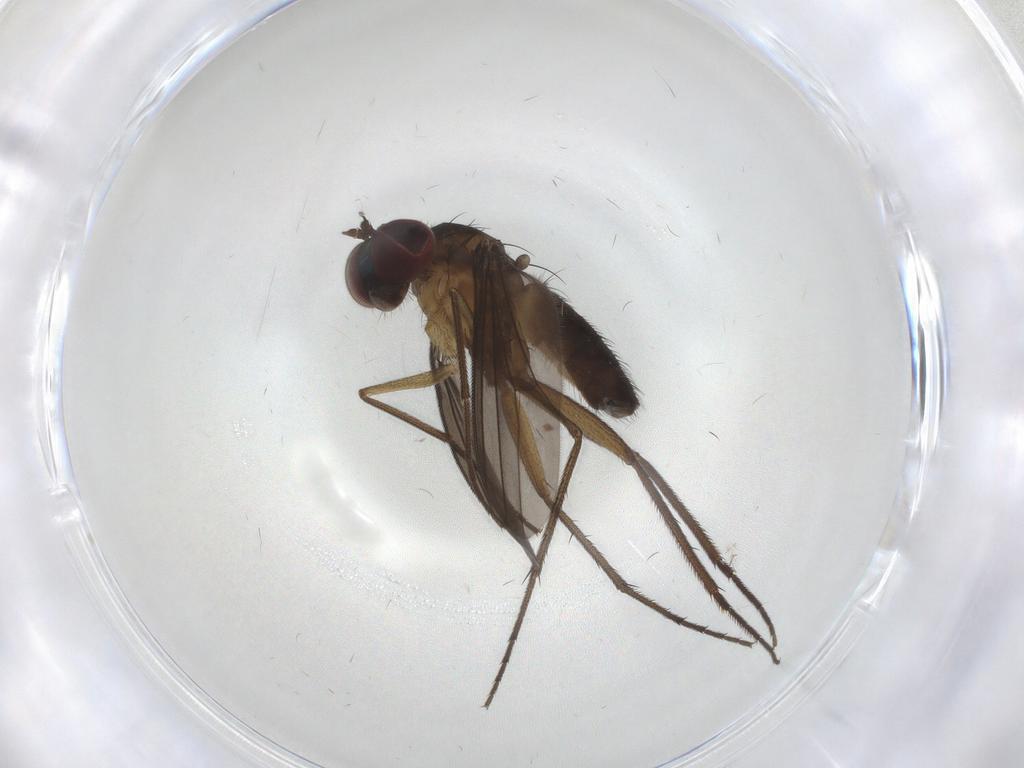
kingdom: Animalia
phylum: Arthropoda
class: Insecta
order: Diptera
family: Dolichopodidae
